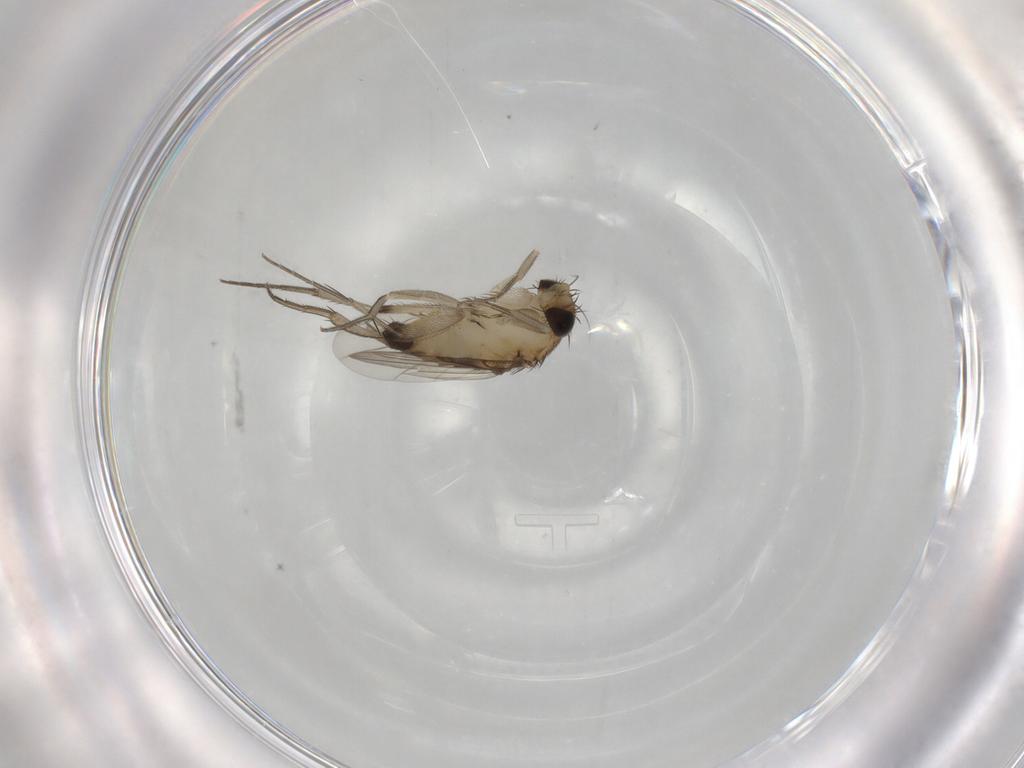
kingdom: Animalia
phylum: Arthropoda
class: Insecta
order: Diptera
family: Phoridae
